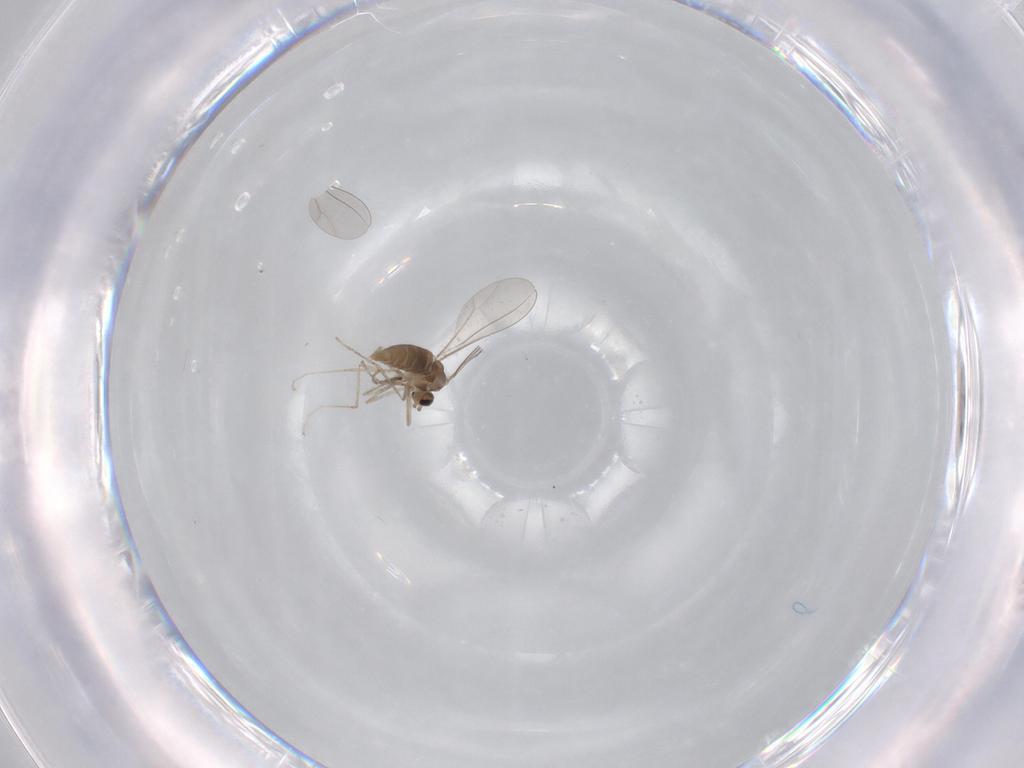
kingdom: Animalia
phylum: Arthropoda
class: Insecta
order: Diptera
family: Chironomidae
